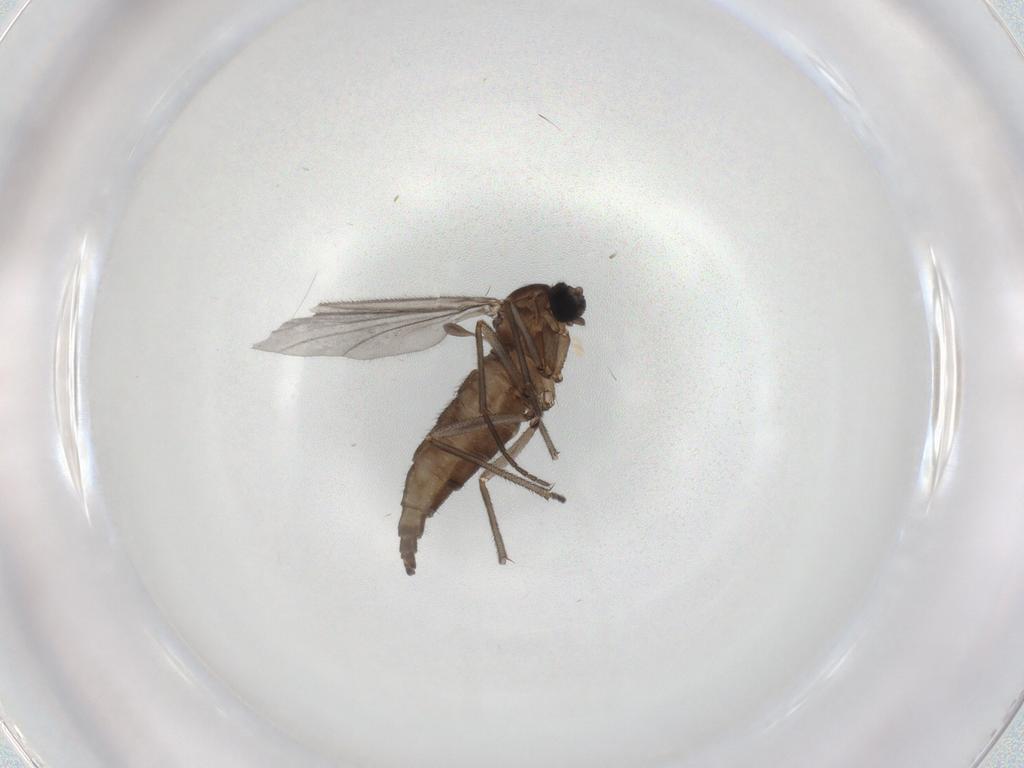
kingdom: Animalia
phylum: Arthropoda
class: Insecta
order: Diptera
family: Sciaridae
